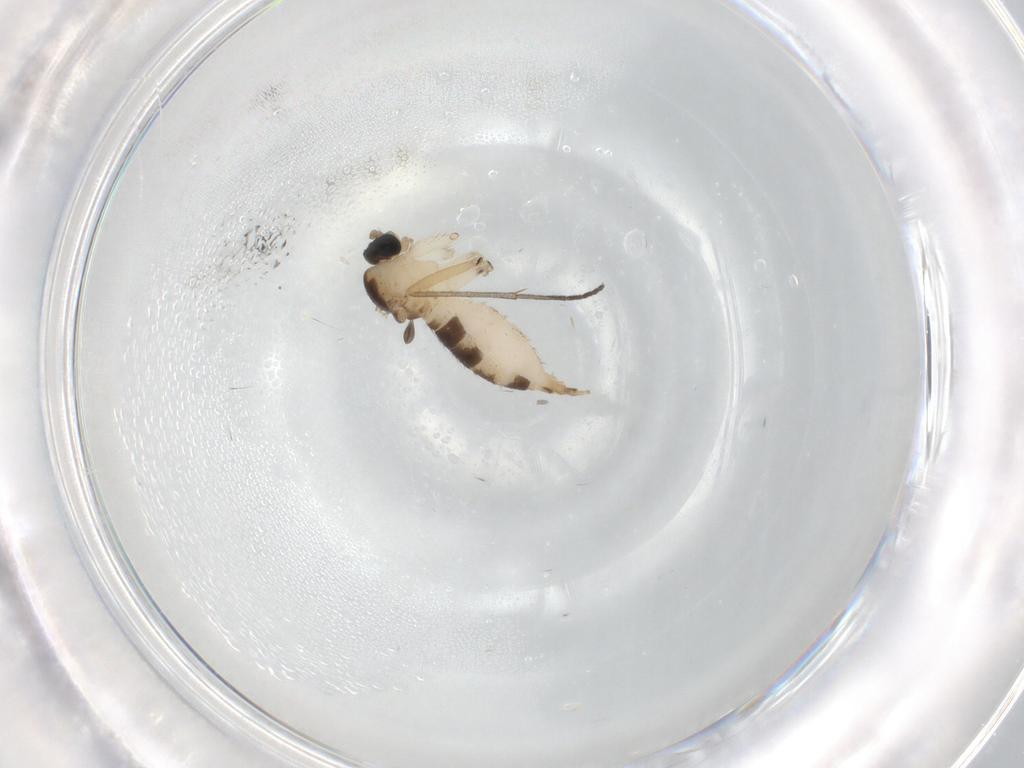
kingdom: Animalia
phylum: Arthropoda
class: Insecta
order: Diptera
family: Sciaridae
